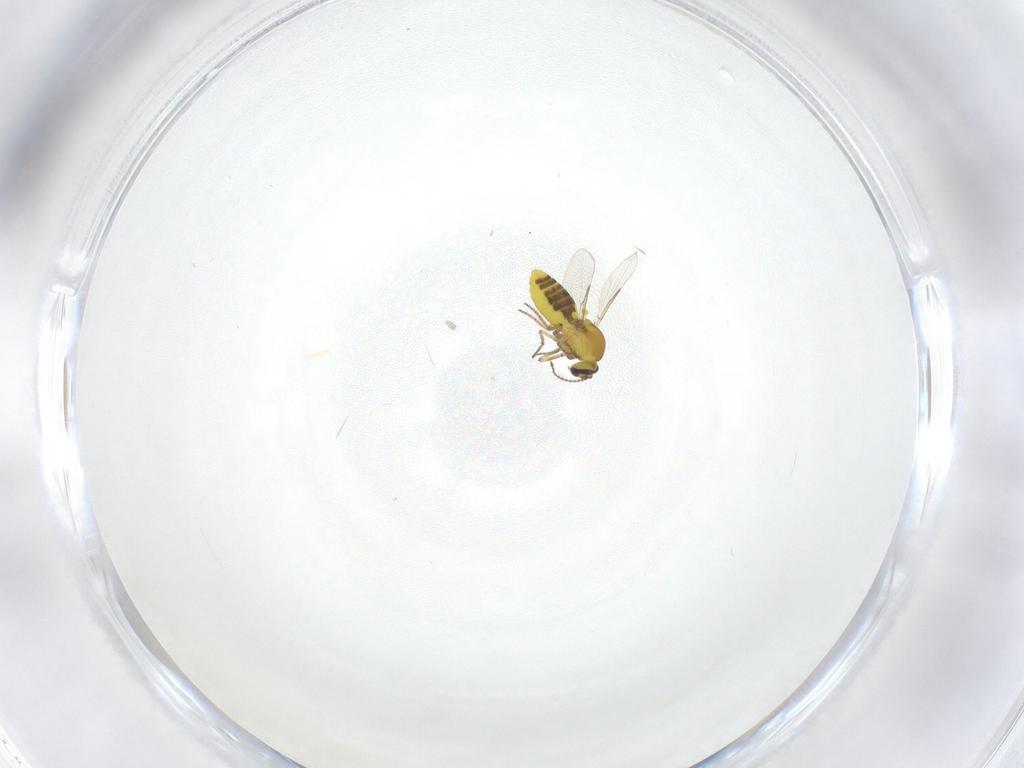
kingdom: Animalia
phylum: Arthropoda
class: Insecta
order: Diptera
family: Ceratopogonidae
